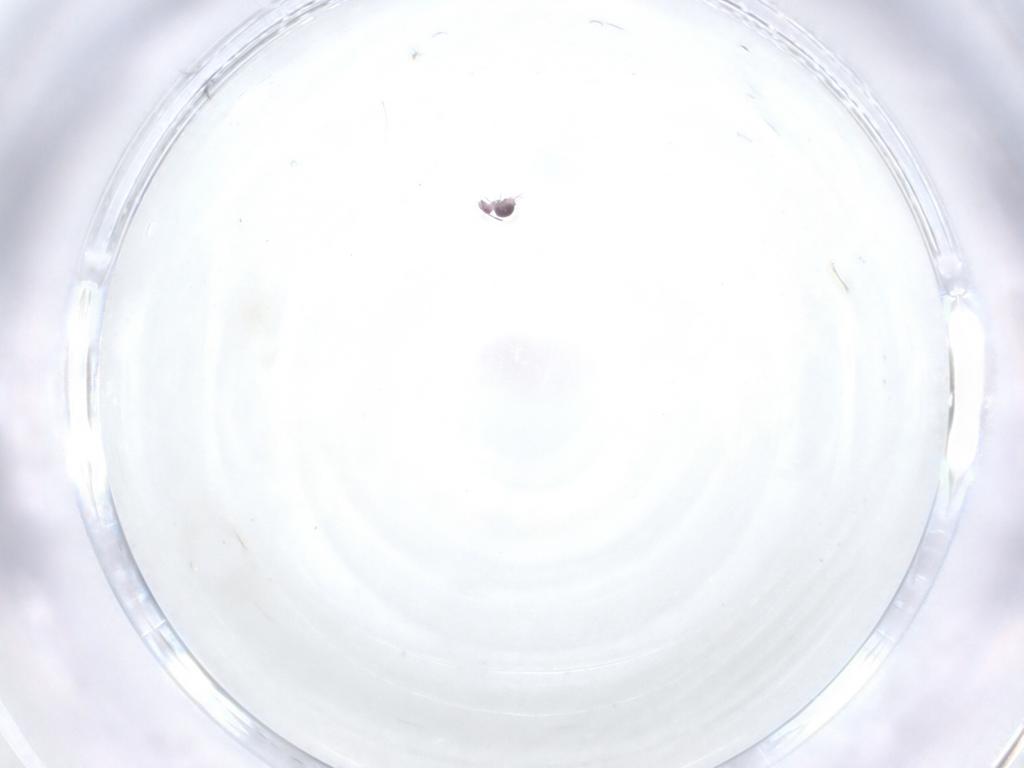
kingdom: Animalia
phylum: Arthropoda
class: Collembola
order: Symphypleona
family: Sminthurididae
